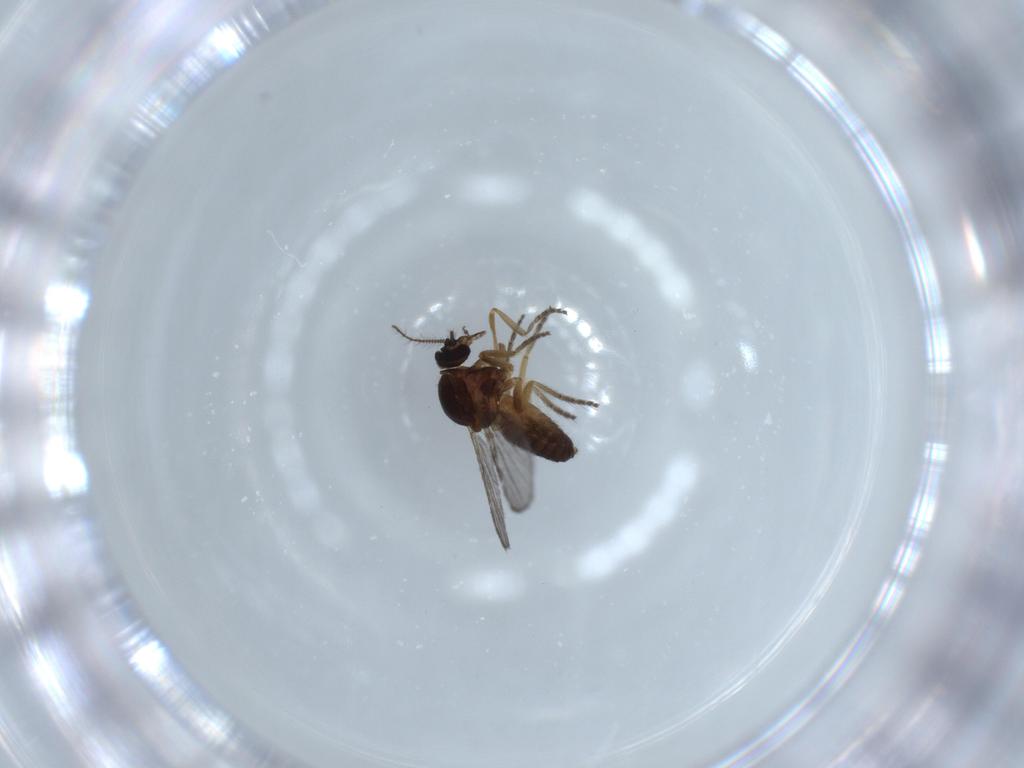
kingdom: Animalia
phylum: Arthropoda
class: Insecta
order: Diptera
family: Ceratopogonidae
